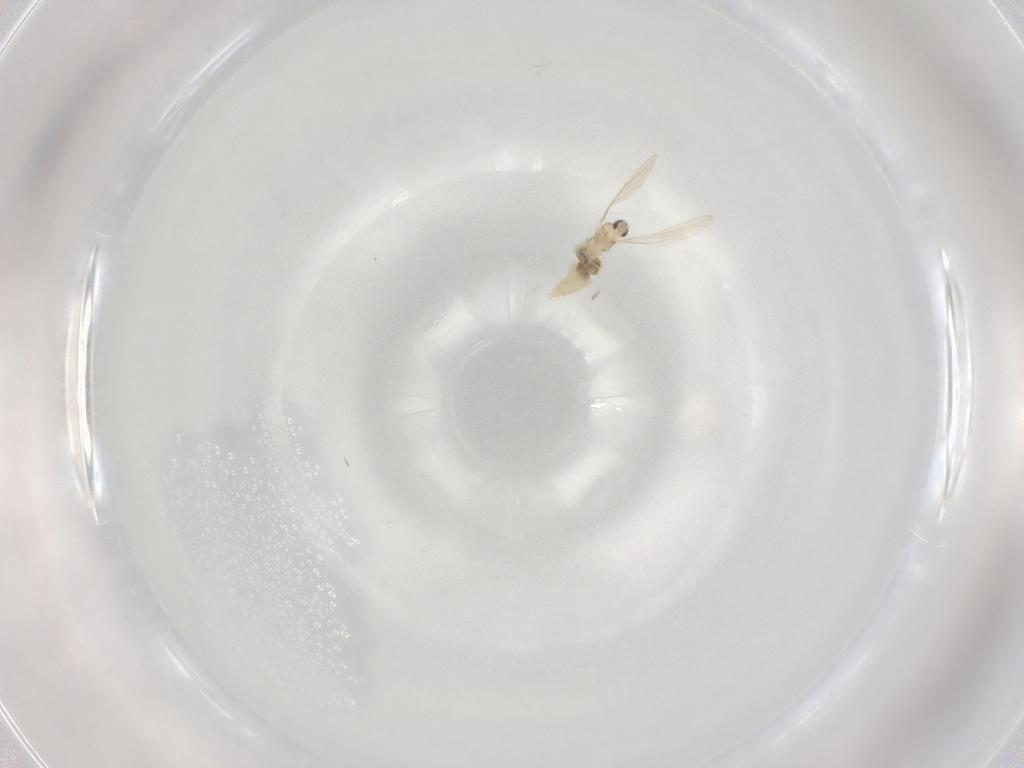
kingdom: Animalia
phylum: Arthropoda
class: Insecta
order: Diptera
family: Cecidomyiidae
